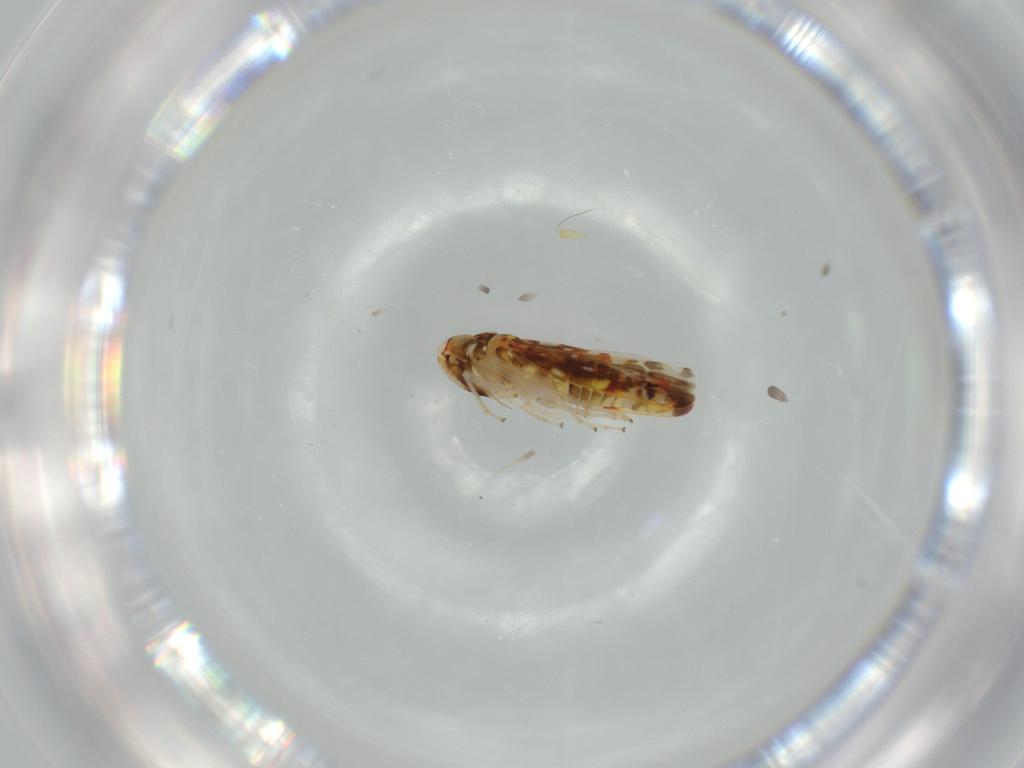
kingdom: Animalia
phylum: Arthropoda
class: Insecta
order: Hemiptera
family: Cicadellidae
